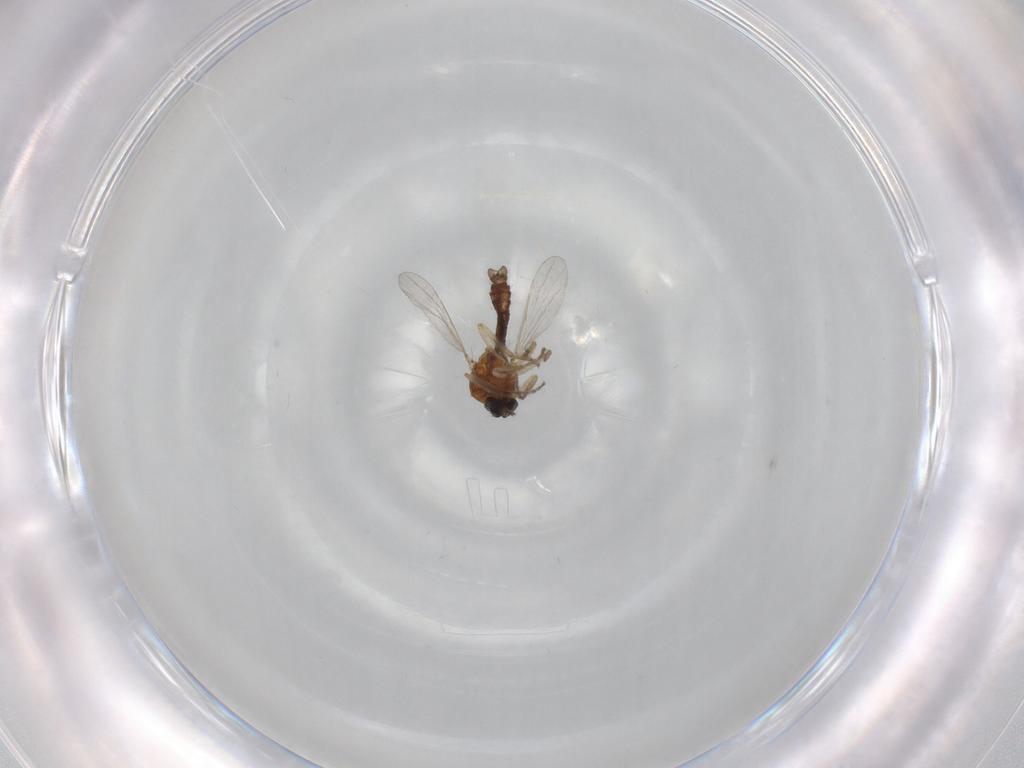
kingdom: Animalia
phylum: Arthropoda
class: Insecta
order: Diptera
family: Ceratopogonidae
